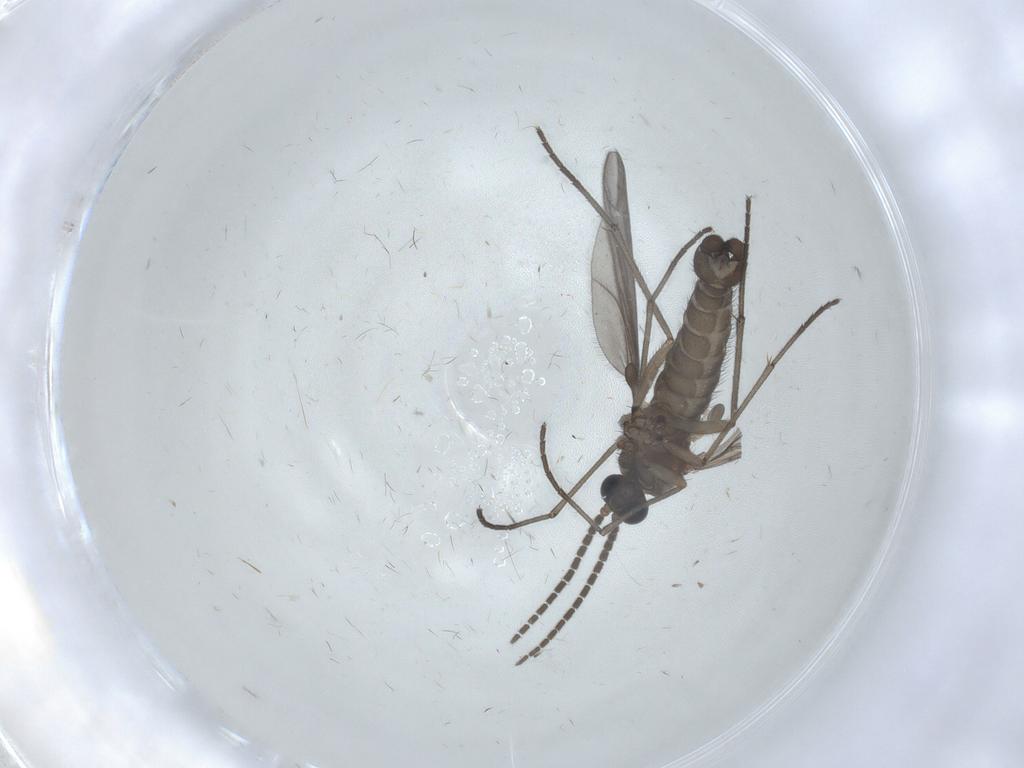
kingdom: Animalia
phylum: Arthropoda
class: Insecta
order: Diptera
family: Sciaridae
